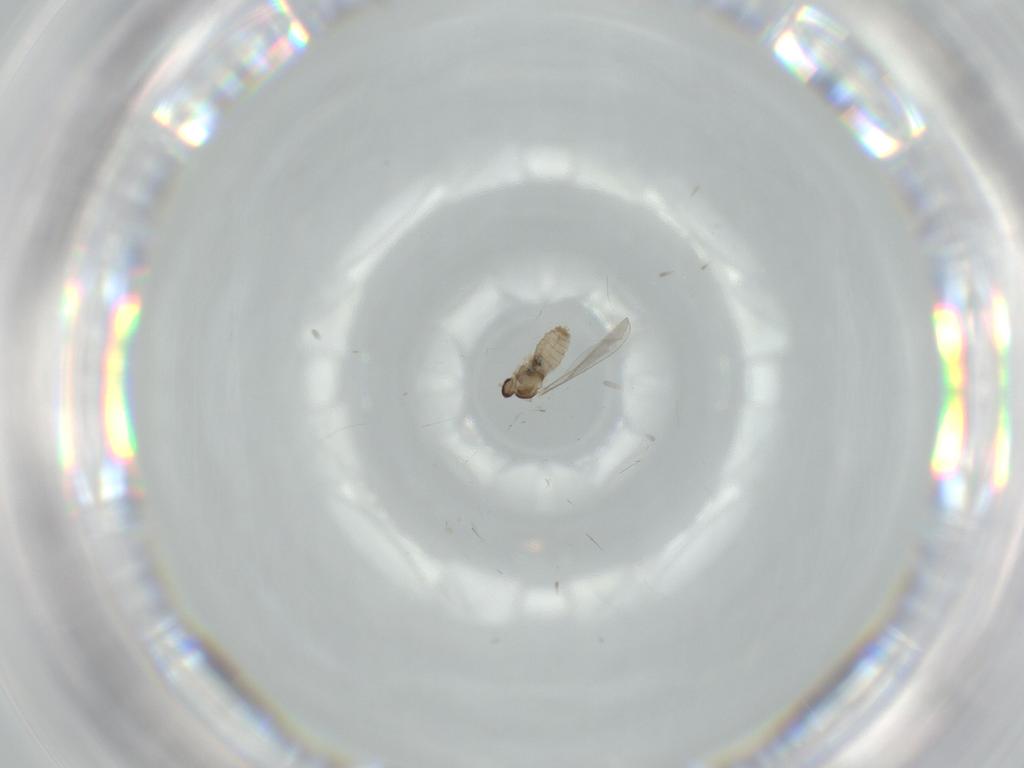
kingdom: Animalia
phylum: Arthropoda
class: Insecta
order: Diptera
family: Cecidomyiidae
